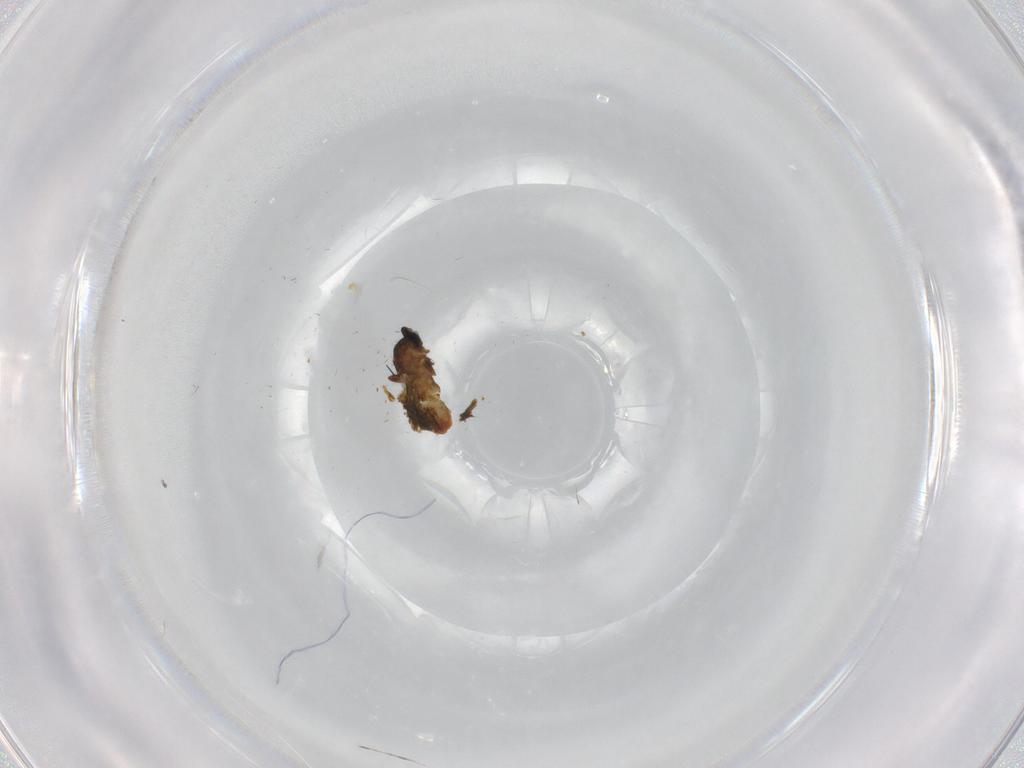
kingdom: Animalia
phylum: Arthropoda
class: Insecta
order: Diptera
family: Cecidomyiidae
